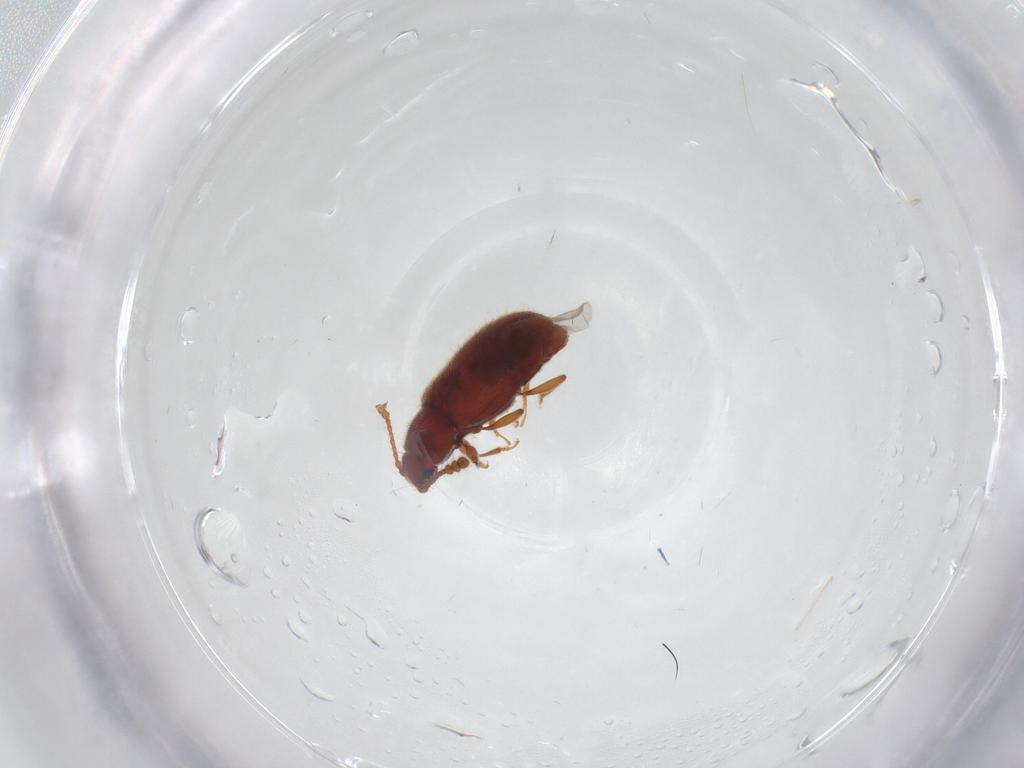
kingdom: Animalia
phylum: Arthropoda
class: Insecta
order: Coleoptera
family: Cryptophagidae
